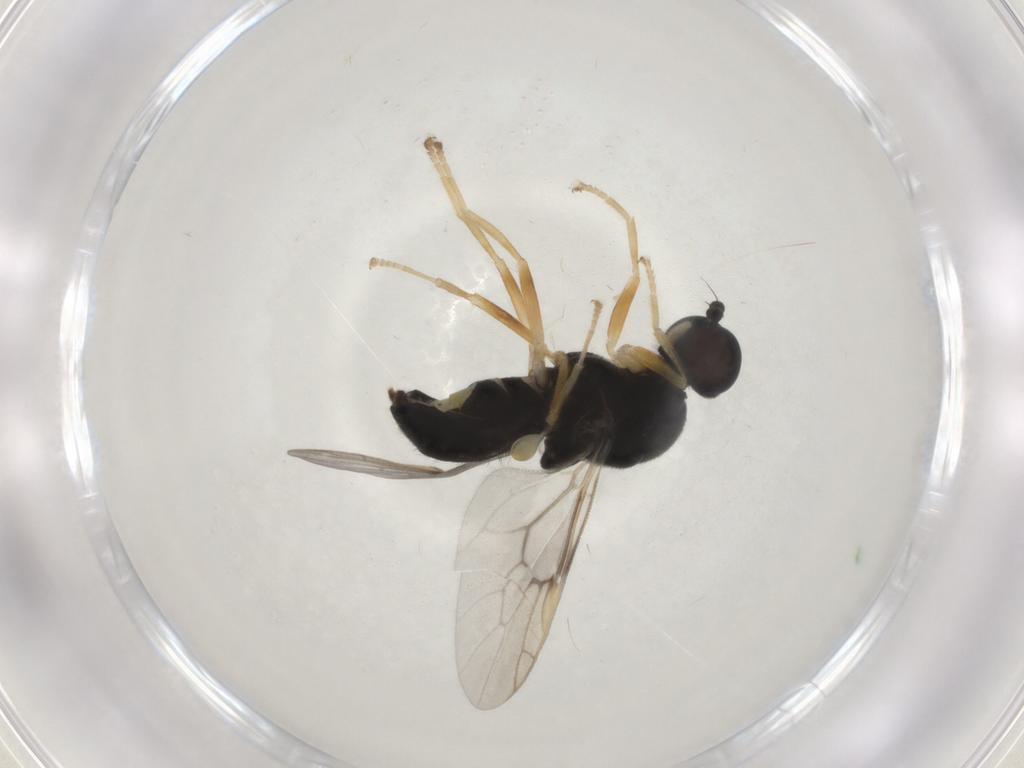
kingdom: Animalia
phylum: Arthropoda
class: Insecta
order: Diptera
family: Stratiomyidae
